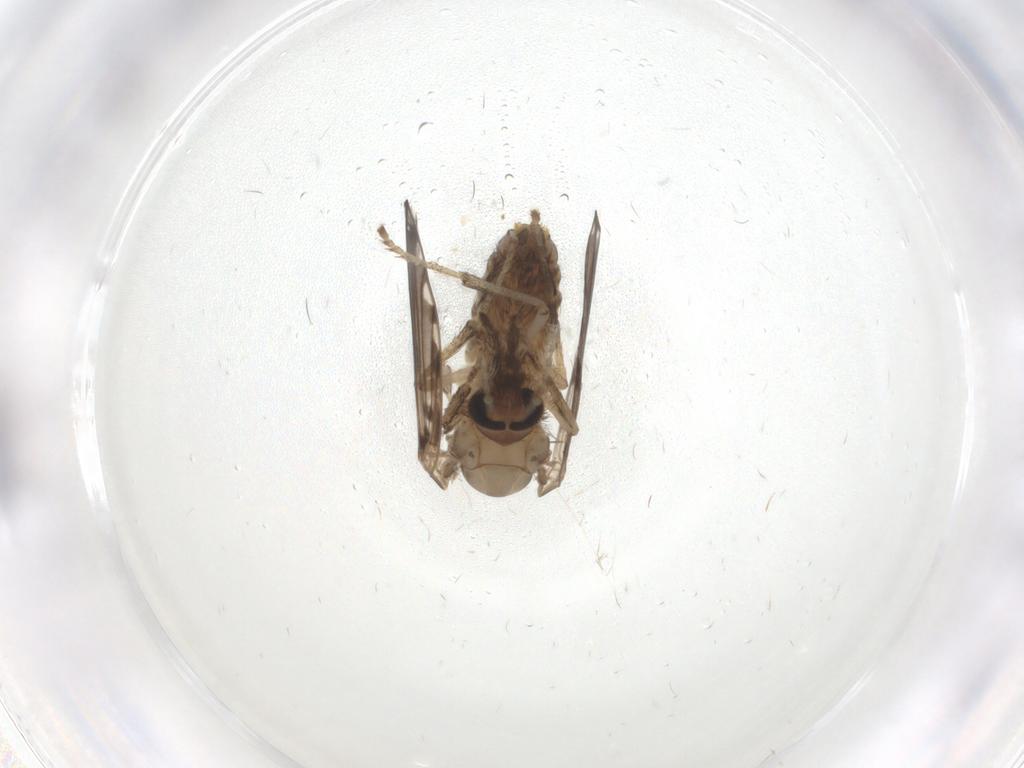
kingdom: Animalia
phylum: Arthropoda
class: Insecta
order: Diptera
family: Psychodidae
